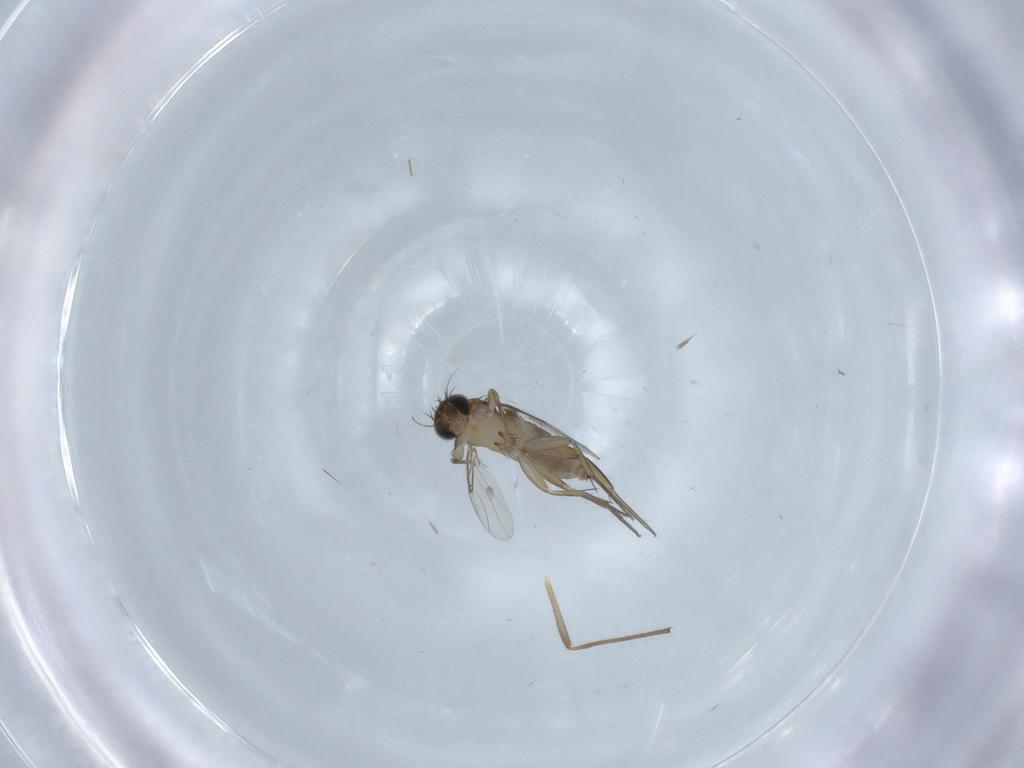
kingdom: Animalia
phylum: Arthropoda
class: Insecta
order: Diptera
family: Phoridae
